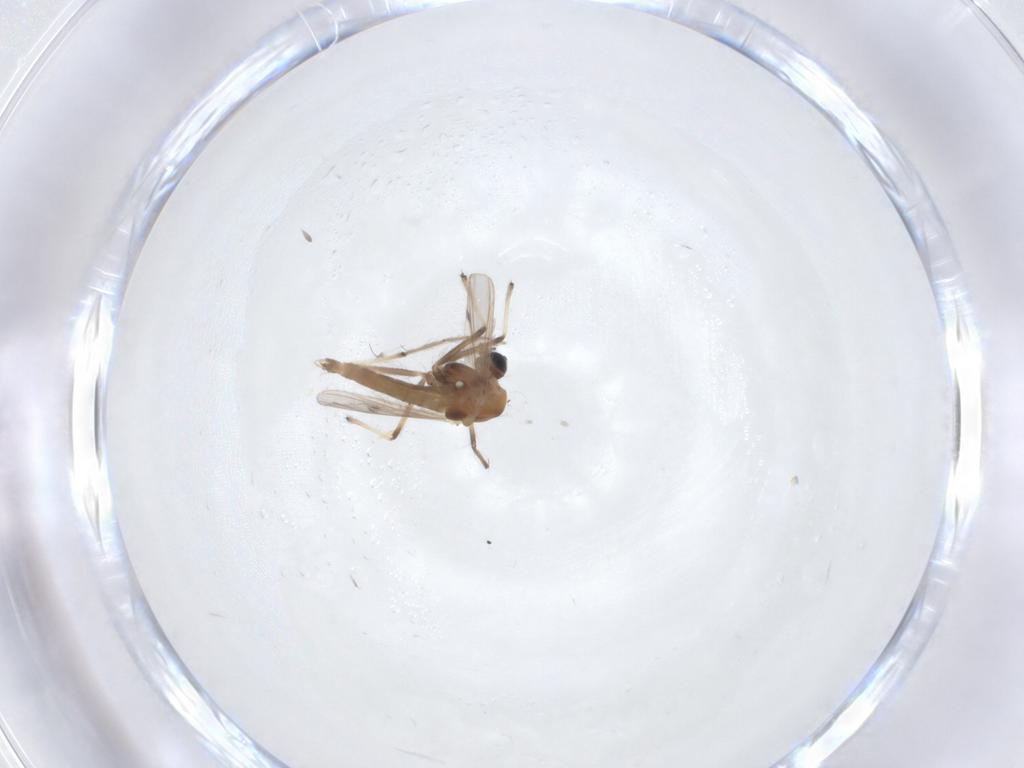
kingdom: Animalia
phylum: Arthropoda
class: Insecta
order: Diptera
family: Chironomidae
